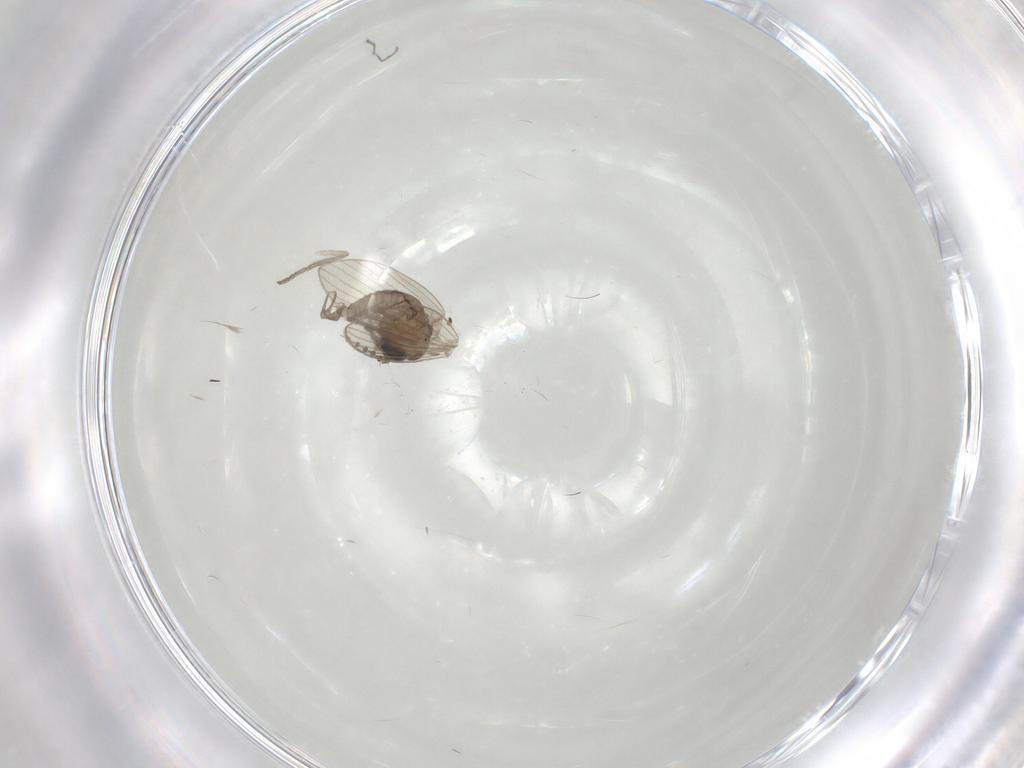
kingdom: Animalia
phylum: Arthropoda
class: Insecta
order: Diptera
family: Psychodidae
